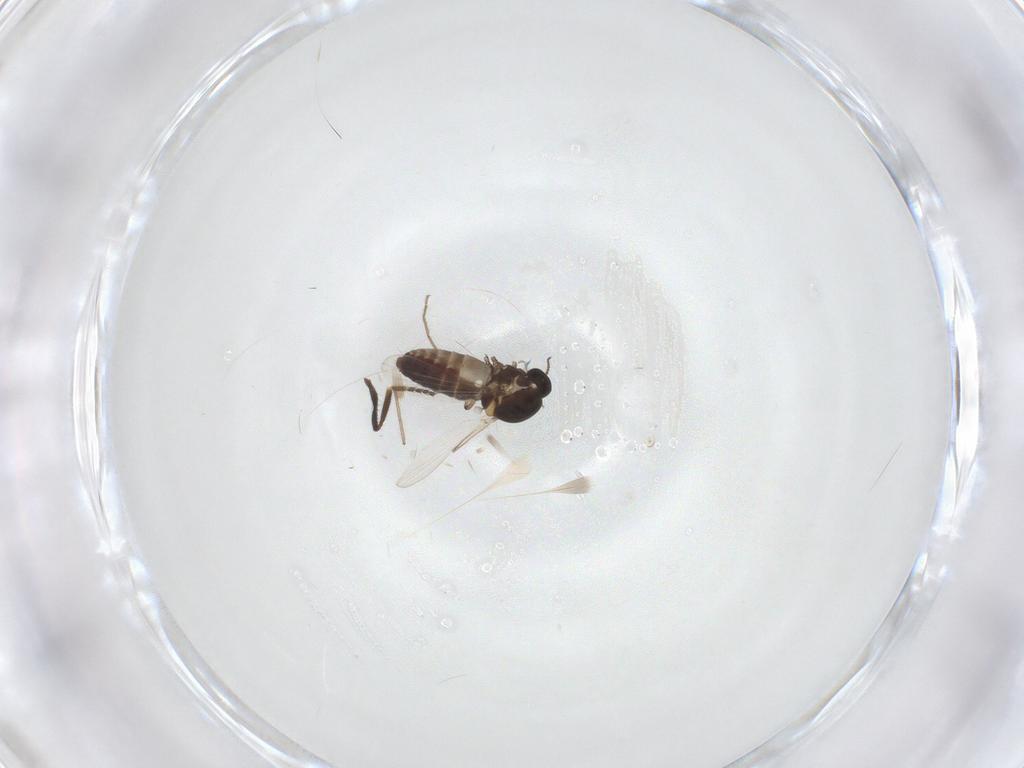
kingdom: Animalia
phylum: Arthropoda
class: Insecta
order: Diptera
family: Ceratopogonidae
